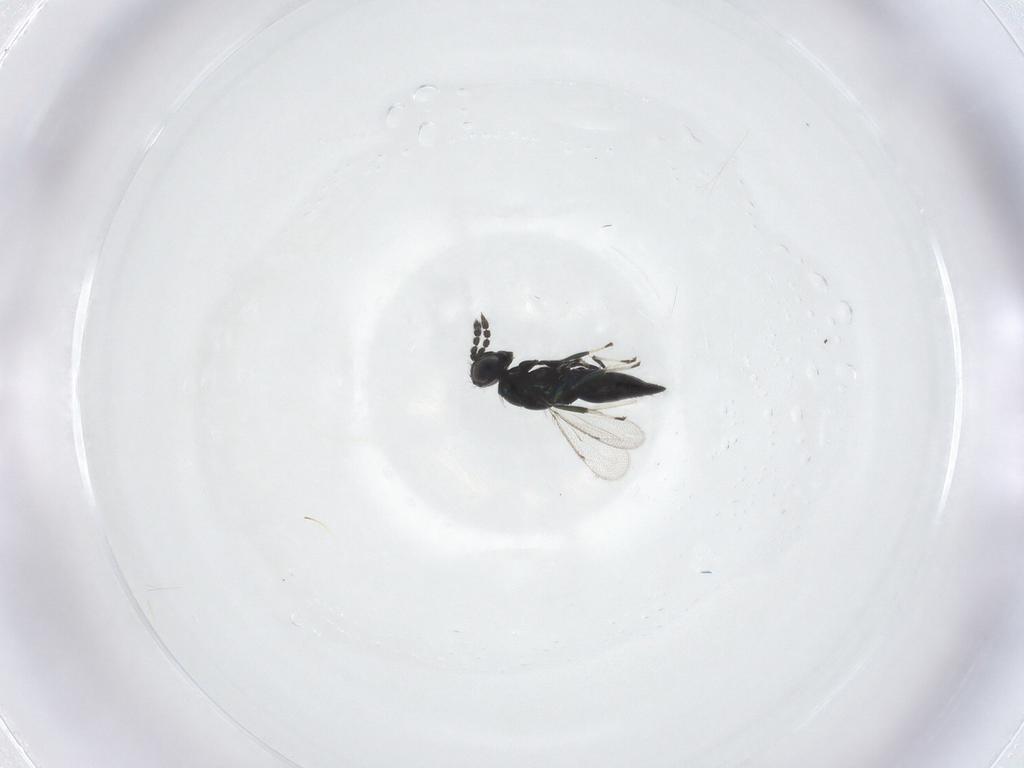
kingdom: Animalia
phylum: Arthropoda
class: Insecta
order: Hymenoptera
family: Eulophidae
